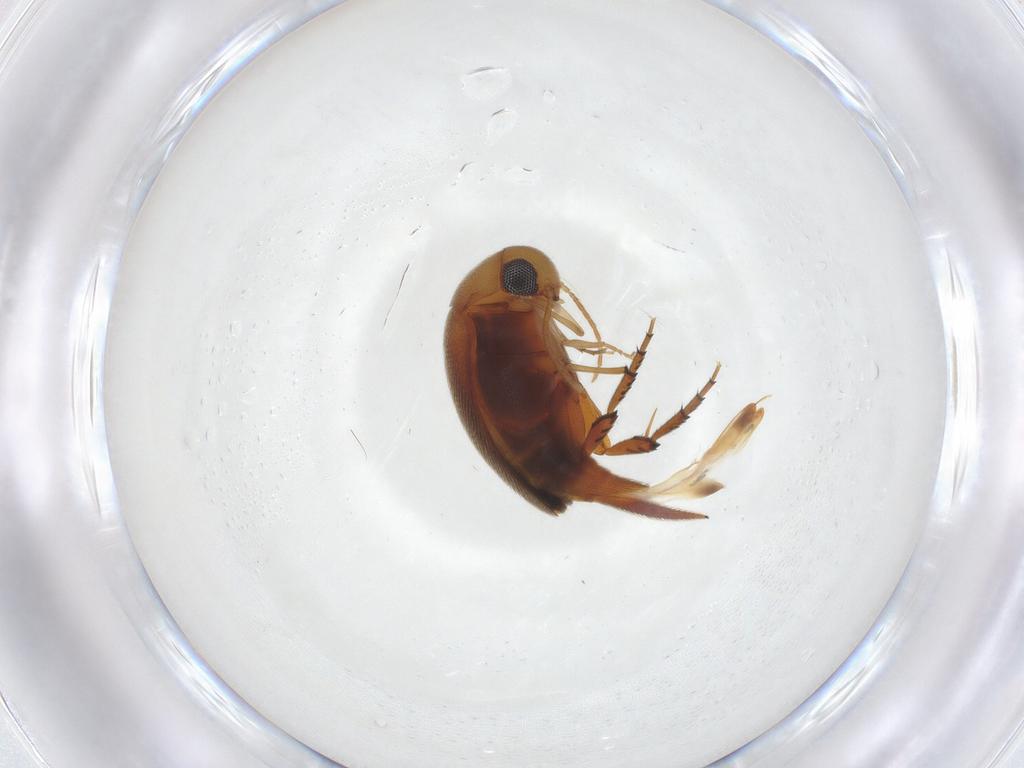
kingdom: Animalia
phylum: Arthropoda
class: Insecta
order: Coleoptera
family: Mordellidae
